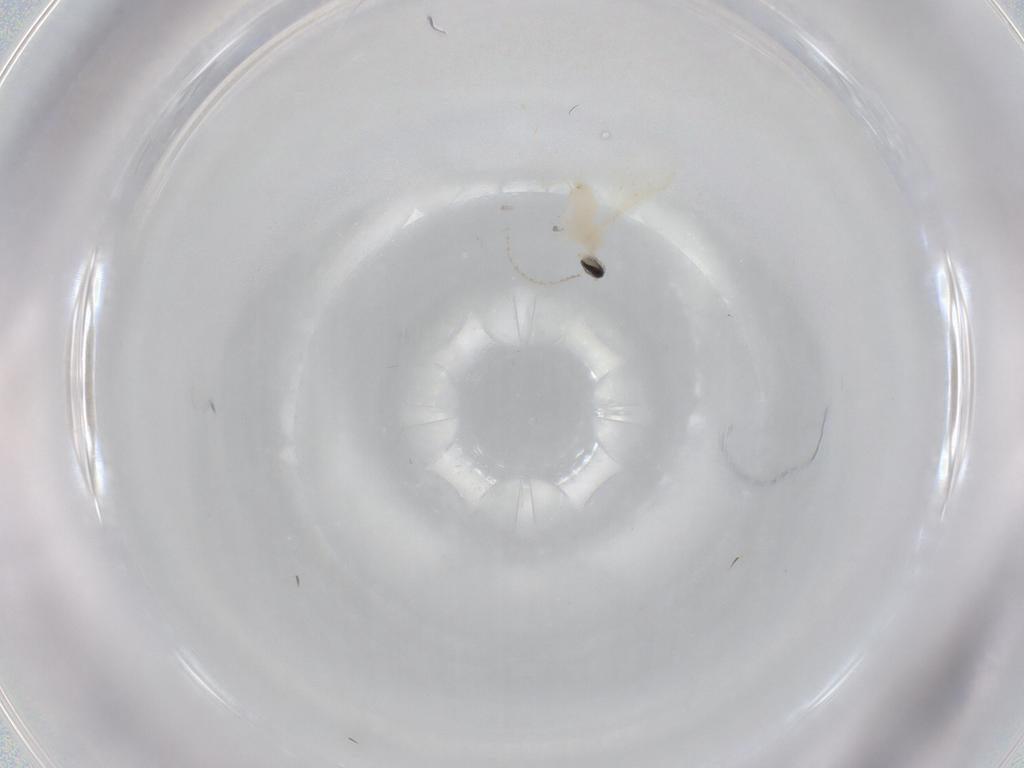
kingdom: Animalia
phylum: Arthropoda
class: Insecta
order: Diptera
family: Cecidomyiidae
